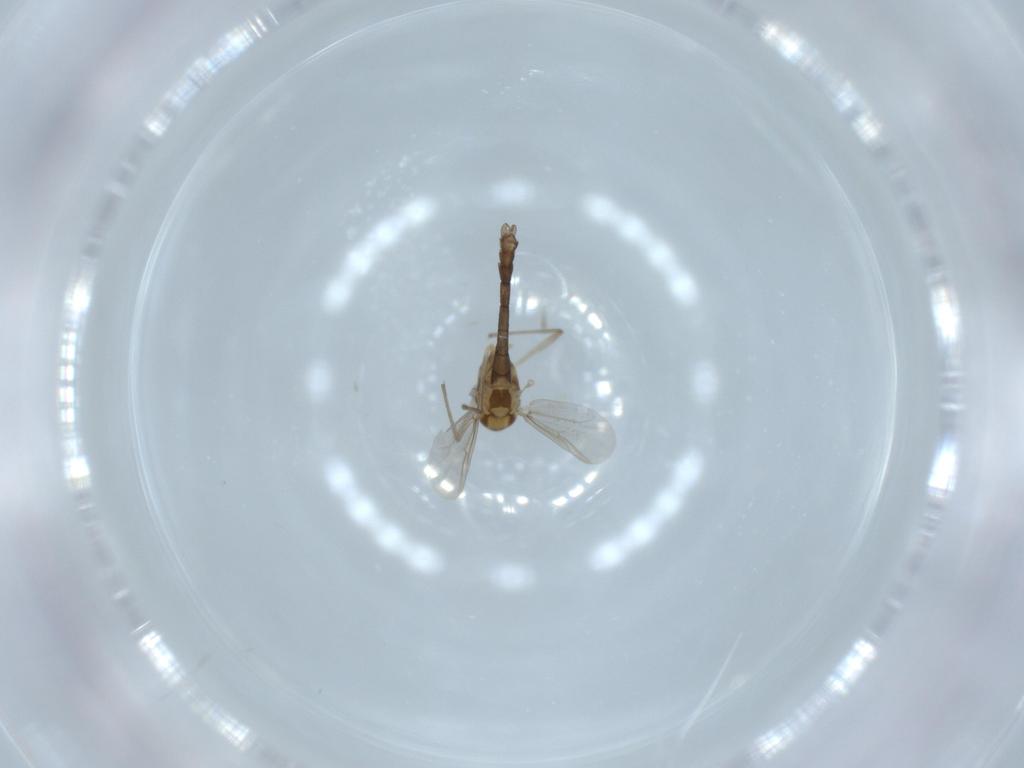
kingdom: Animalia
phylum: Arthropoda
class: Insecta
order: Diptera
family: Chironomidae
